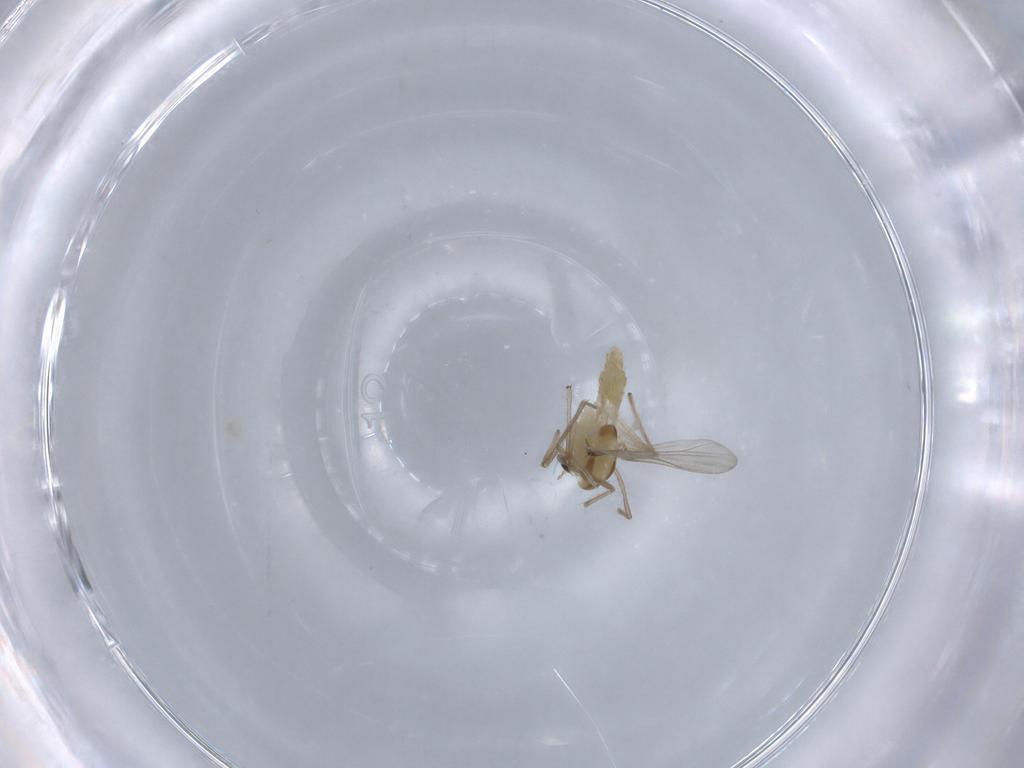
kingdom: Animalia
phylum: Arthropoda
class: Insecta
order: Diptera
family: Chironomidae
